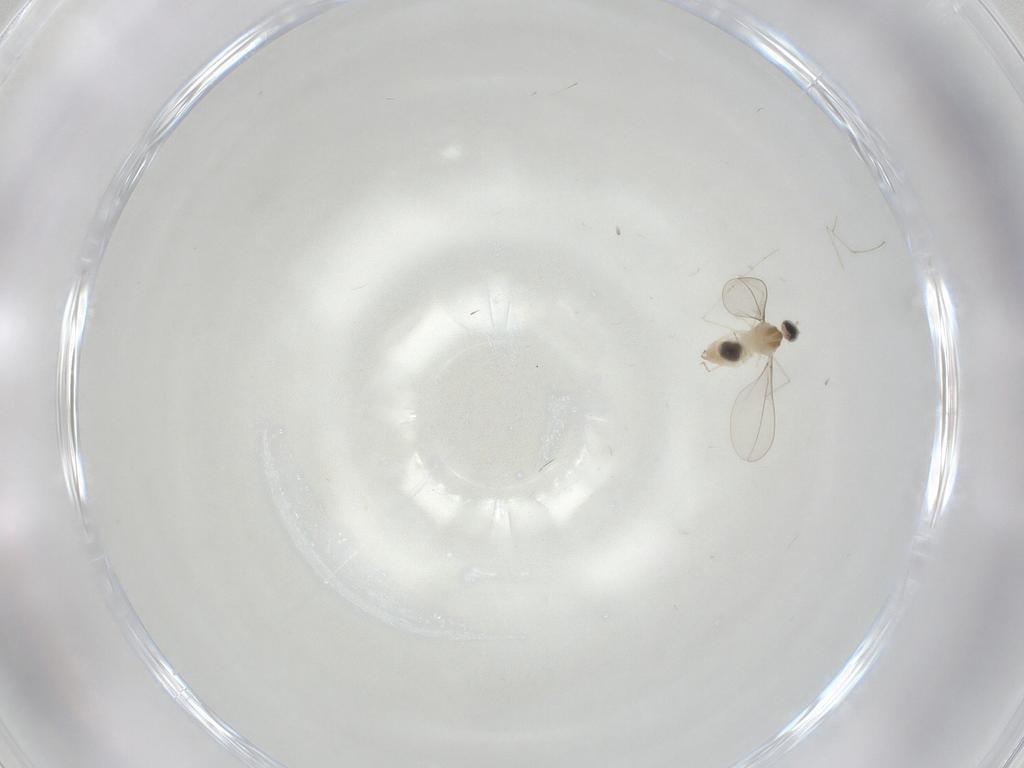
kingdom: Animalia
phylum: Arthropoda
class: Insecta
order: Diptera
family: Cecidomyiidae
